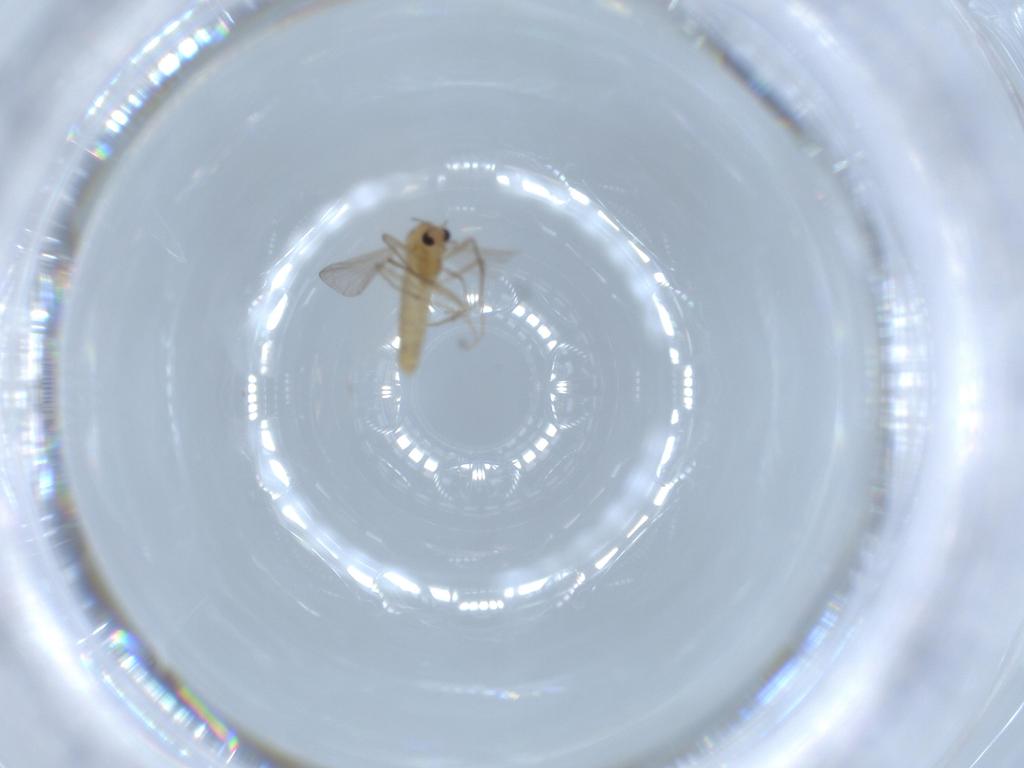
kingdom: Animalia
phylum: Arthropoda
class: Insecta
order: Diptera
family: Chironomidae
